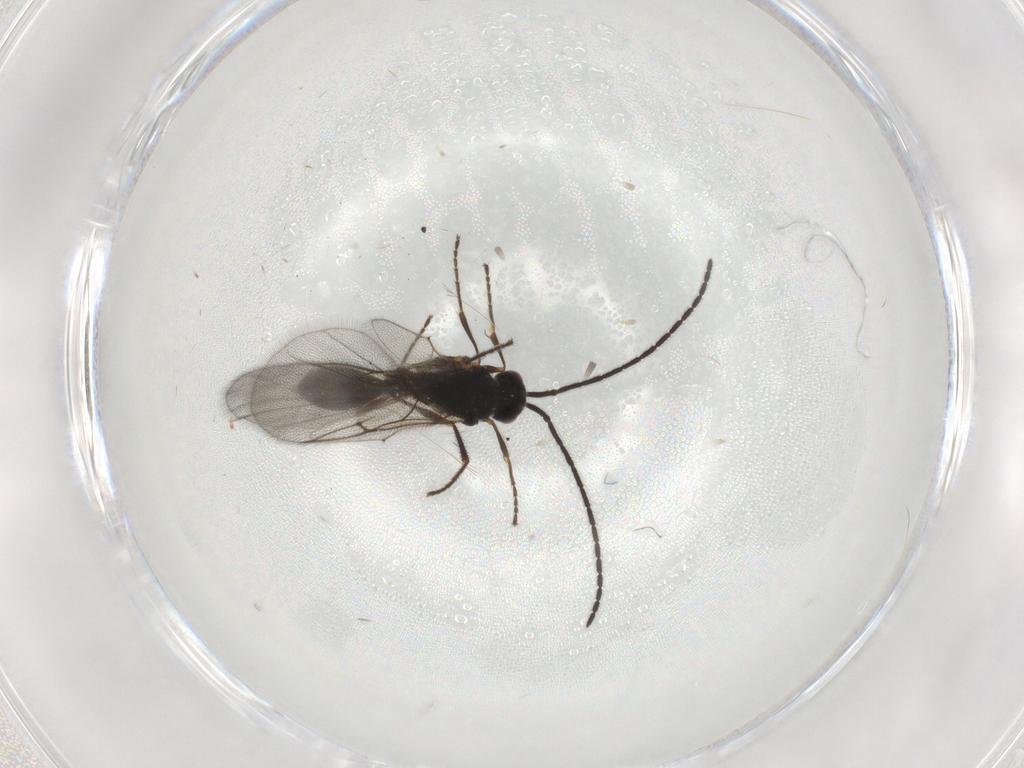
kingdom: Animalia
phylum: Arthropoda
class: Insecta
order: Hymenoptera
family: Diapriidae
